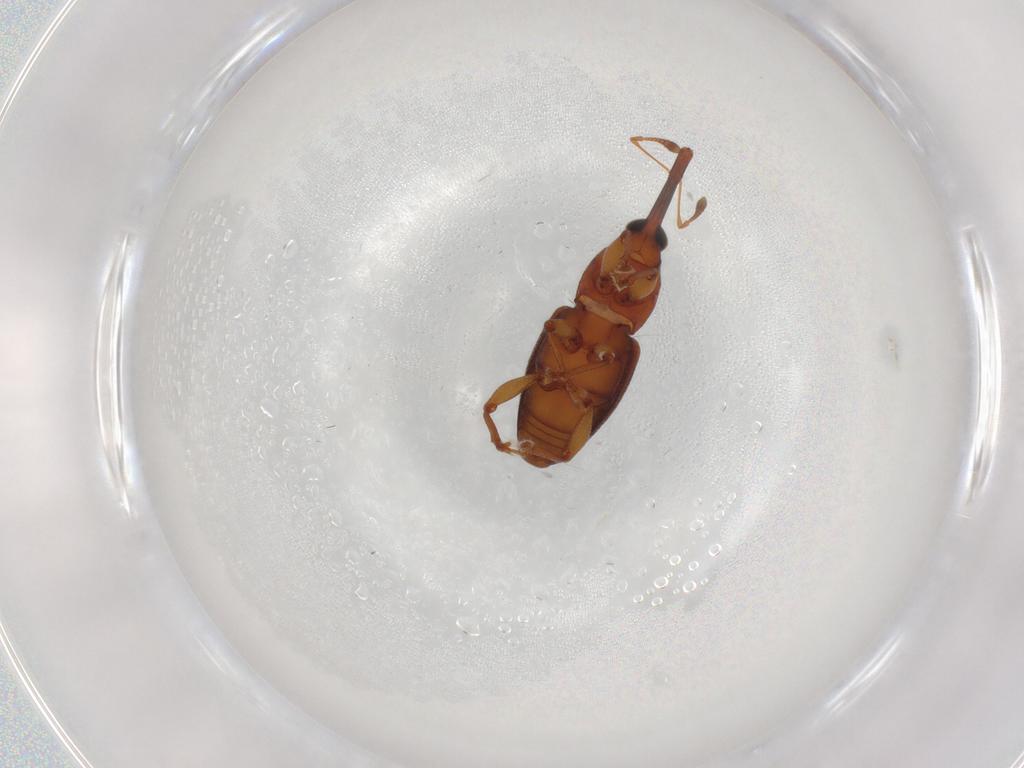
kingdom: Animalia
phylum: Arthropoda
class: Insecta
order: Coleoptera
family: Curculionidae
